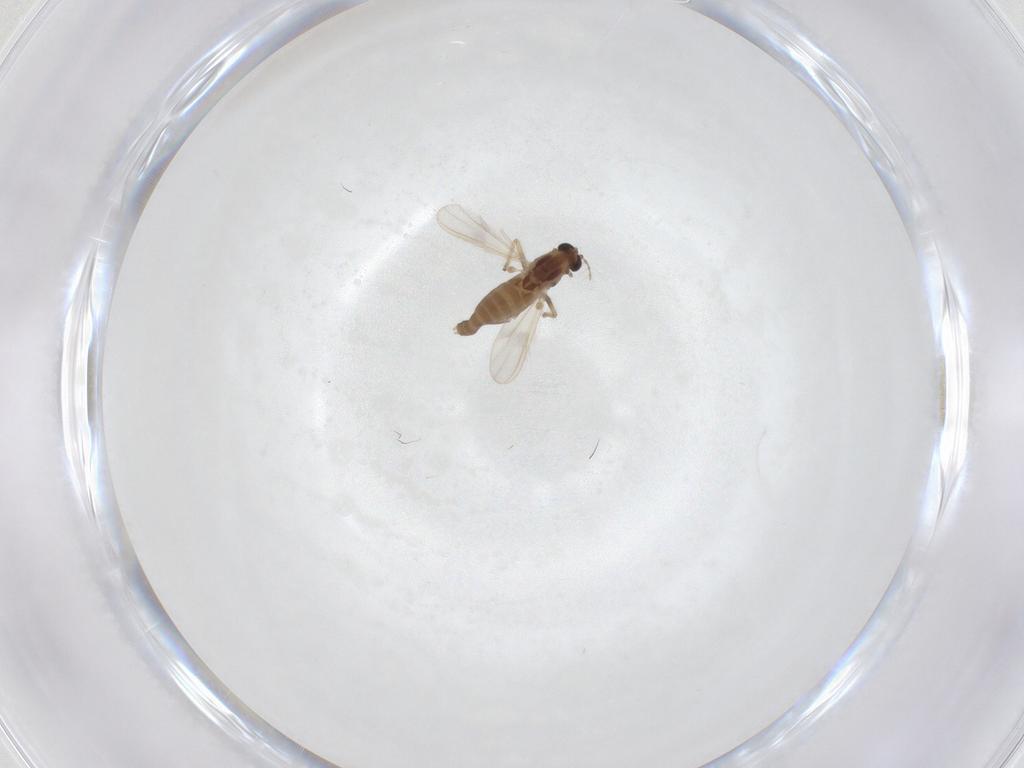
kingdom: Animalia
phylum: Arthropoda
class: Insecta
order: Diptera
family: Chironomidae
